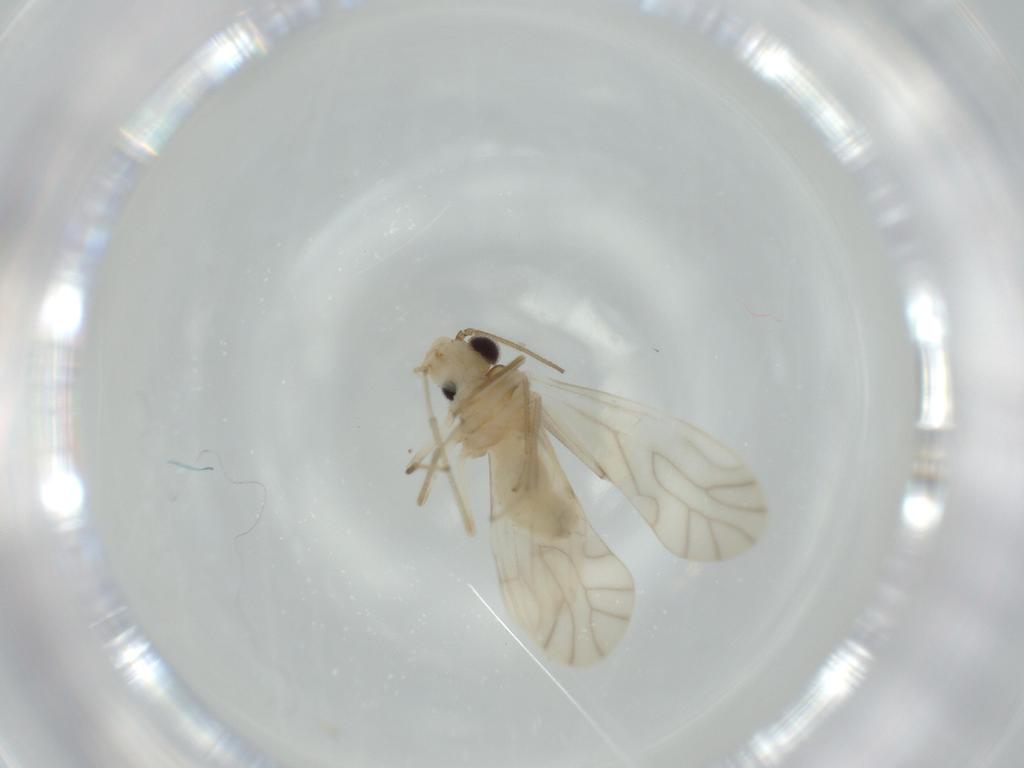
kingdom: Animalia
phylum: Arthropoda
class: Insecta
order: Psocodea
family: Caeciliusidae
